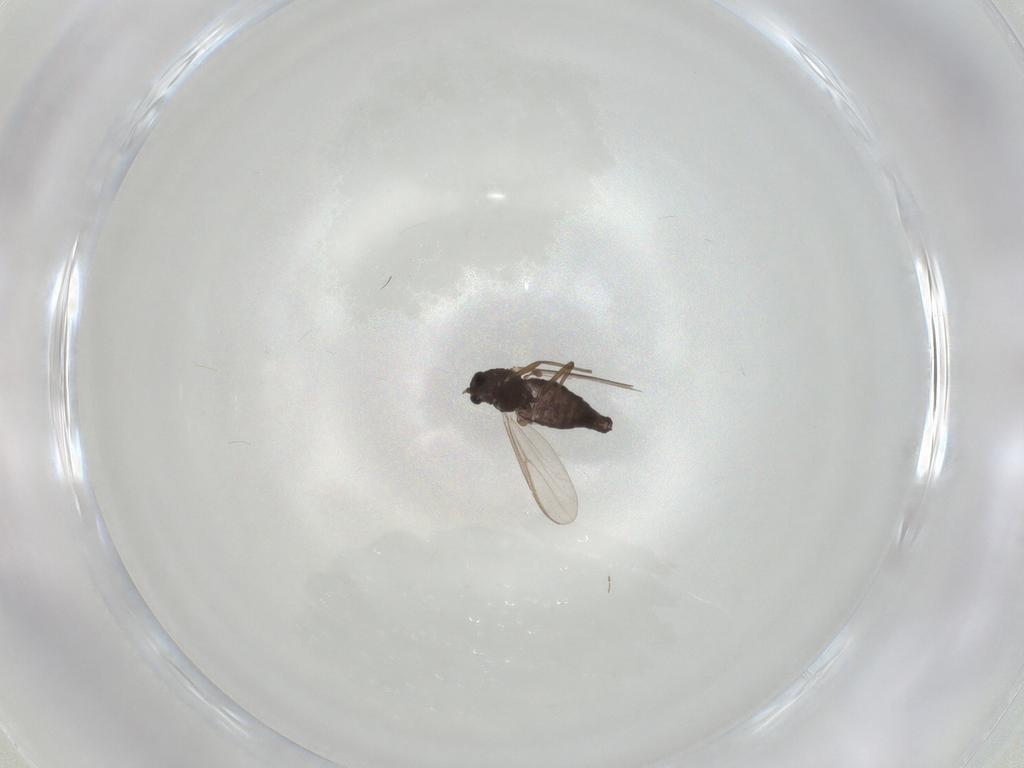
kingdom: Animalia
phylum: Arthropoda
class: Insecta
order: Diptera
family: Chironomidae
